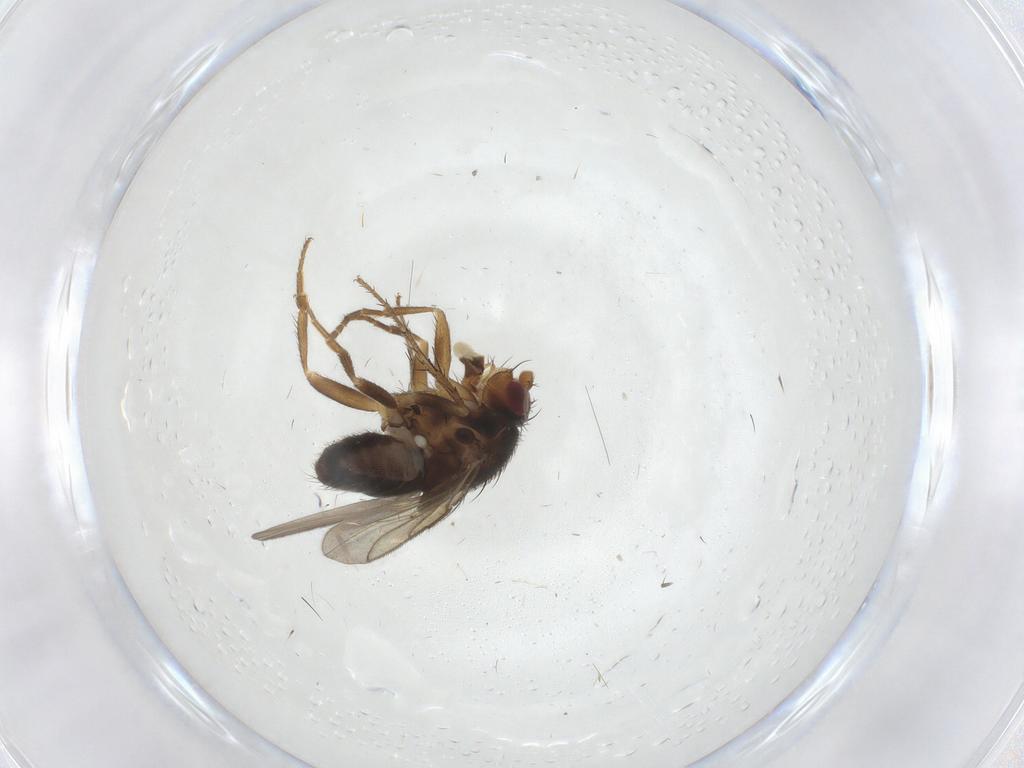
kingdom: Animalia
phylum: Arthropoda
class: Insecta
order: Diptera
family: Sphaeroceridae
